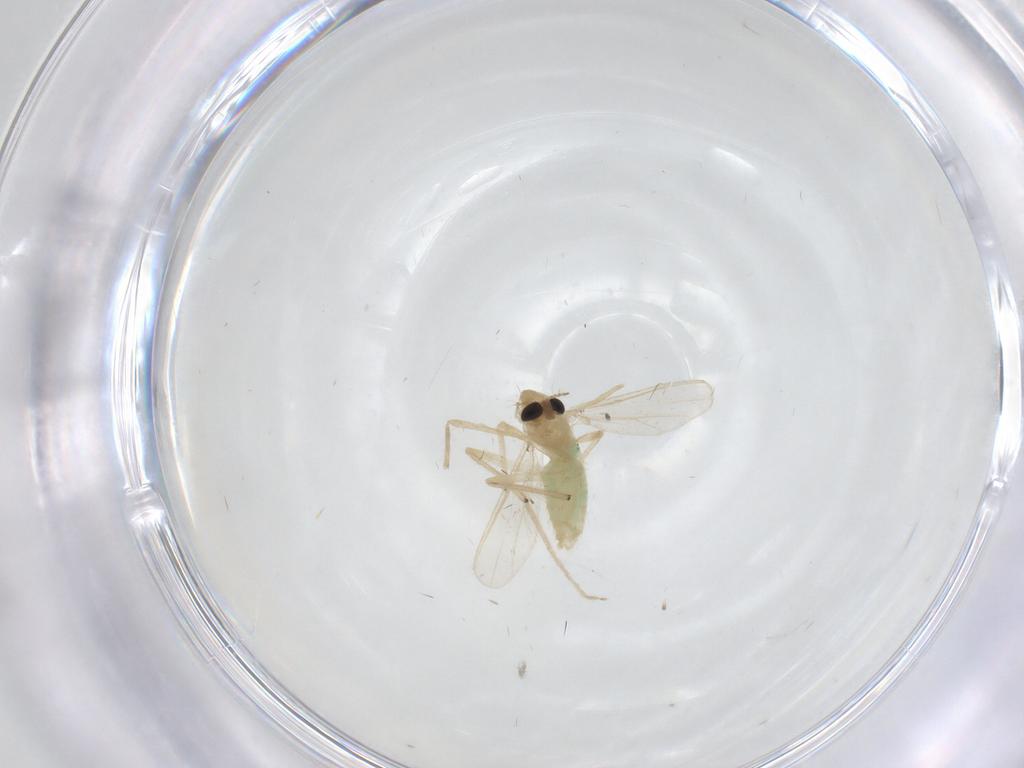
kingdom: Animalia
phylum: Arthropoda
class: Insecta
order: Diptera
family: Chironomidae
